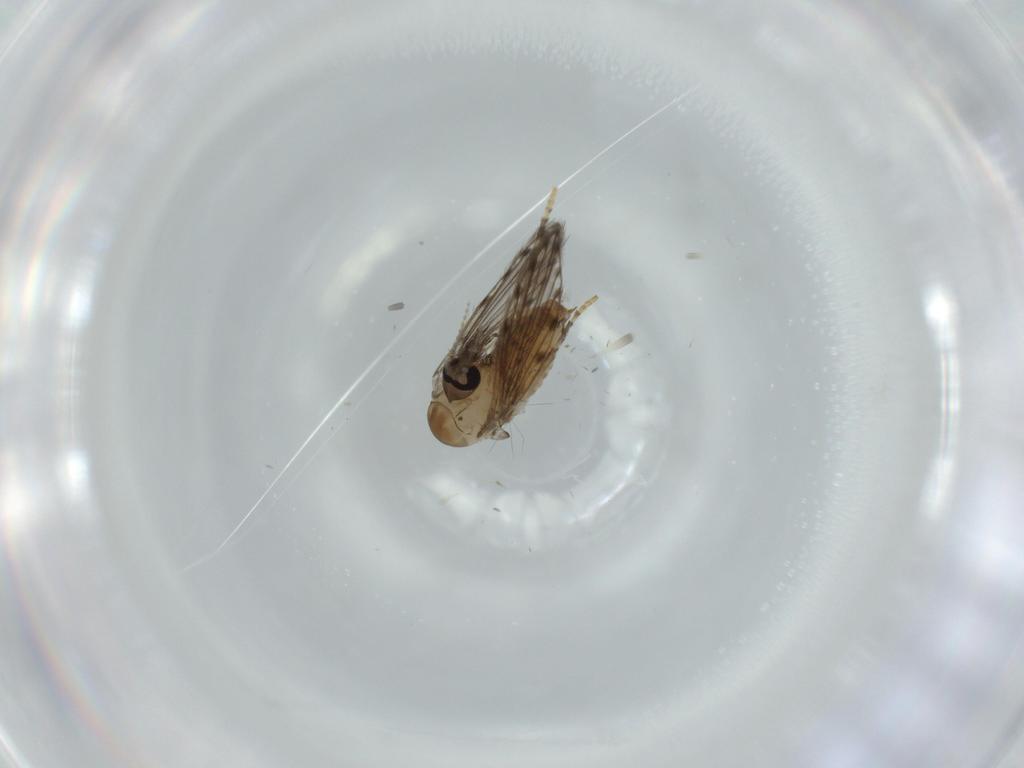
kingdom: Animalia
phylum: Arthropoda
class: Insecta
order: Diptera
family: Psychodidae
